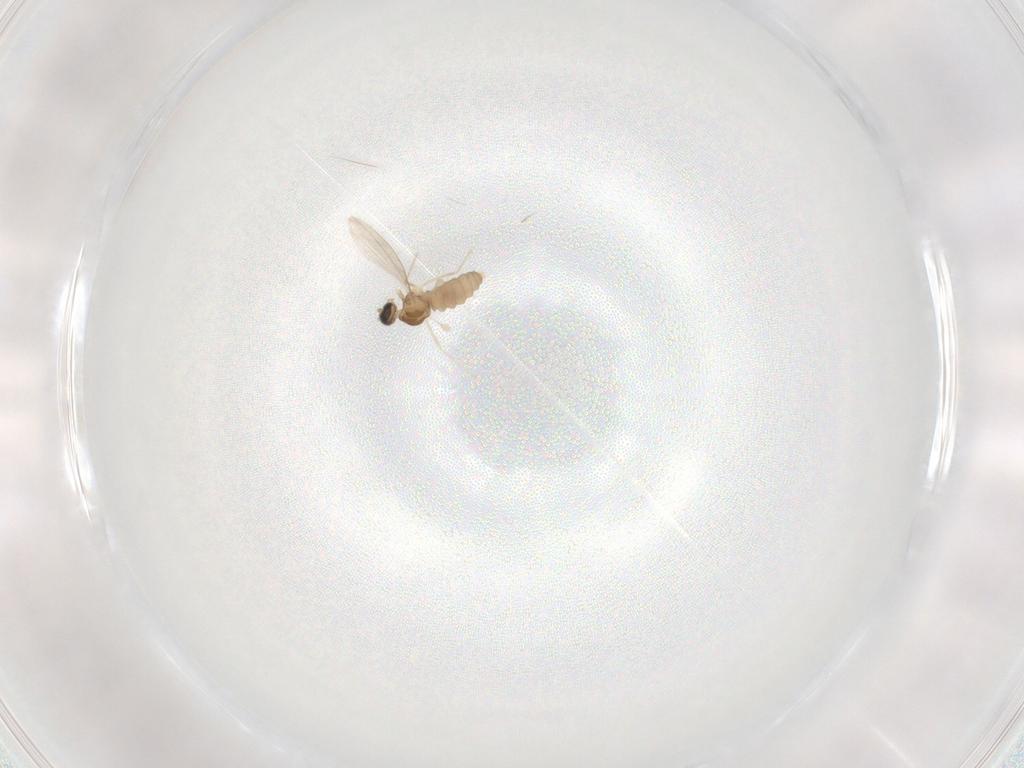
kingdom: Animalia
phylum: Arthropoda
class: Insecta
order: Diptera
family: Cecidomyiidae
